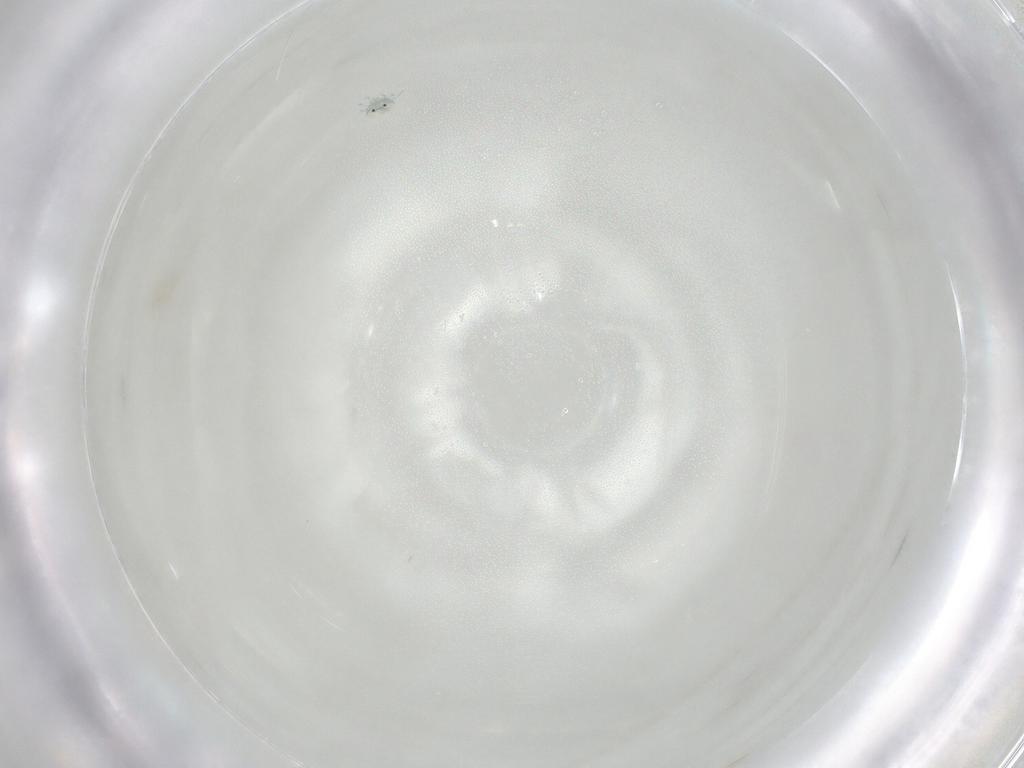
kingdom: Animalia
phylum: Arthropoda
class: Arachnida
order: Trombidiformes
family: Arrenuridae
